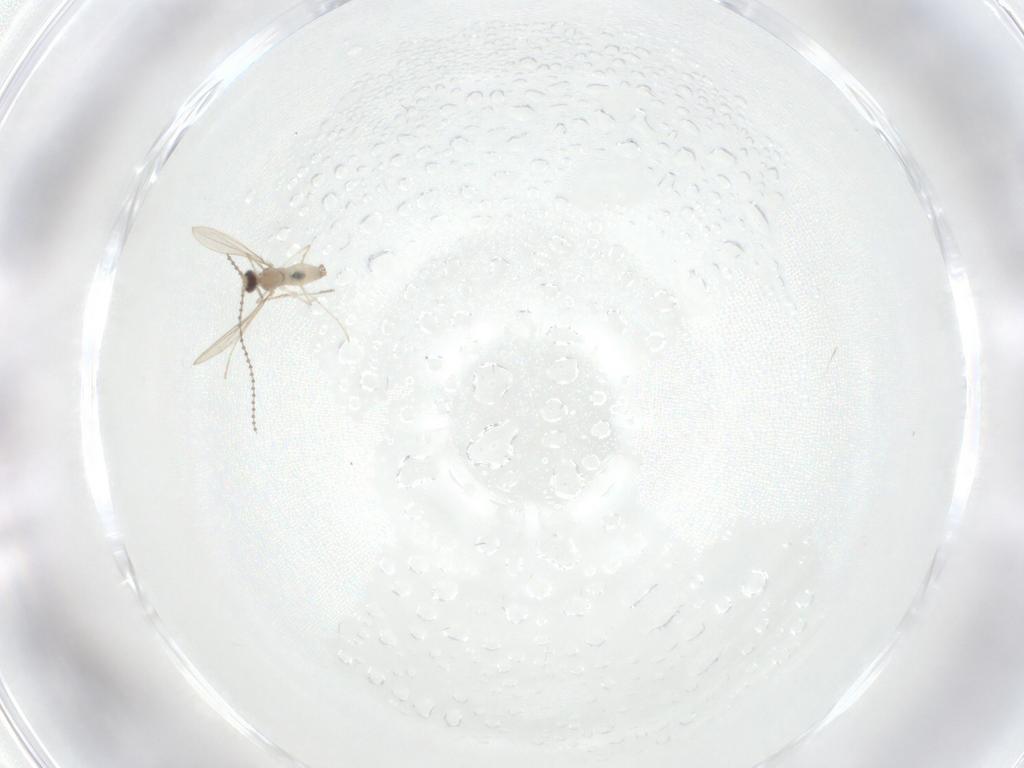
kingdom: Animalia
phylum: Arthropoda
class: Insecta
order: Diptera
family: Cecidomyiidae
